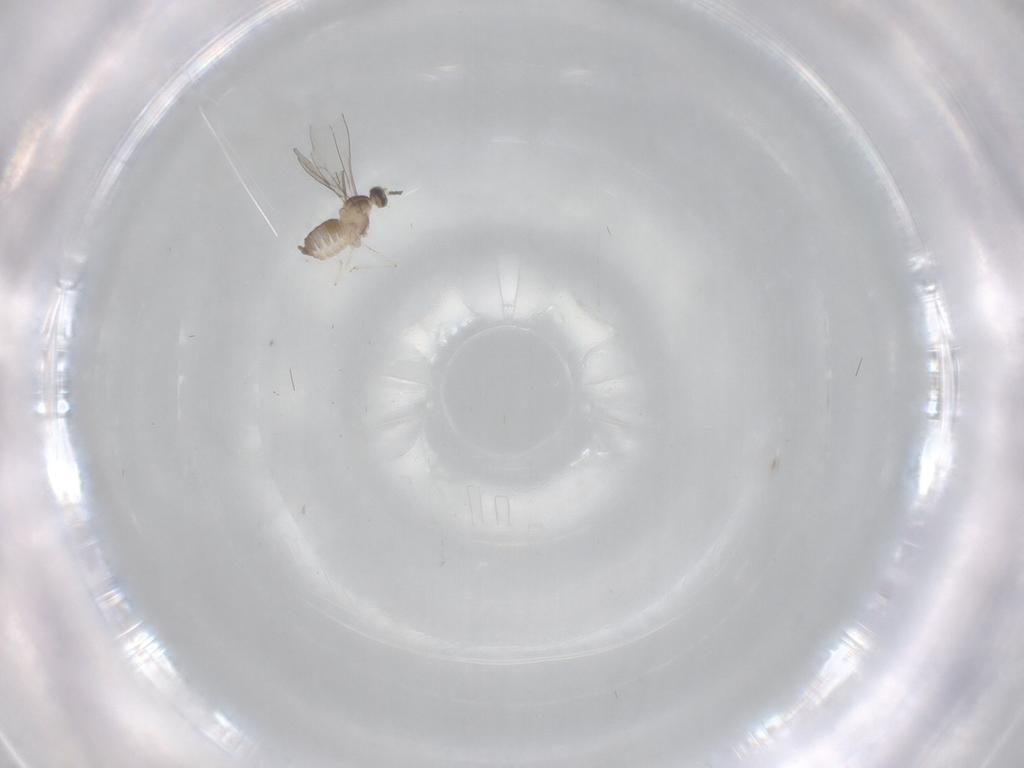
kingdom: Animalia
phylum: Arthropoda
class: Insecta
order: Diptera
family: Cecidomyiidae
